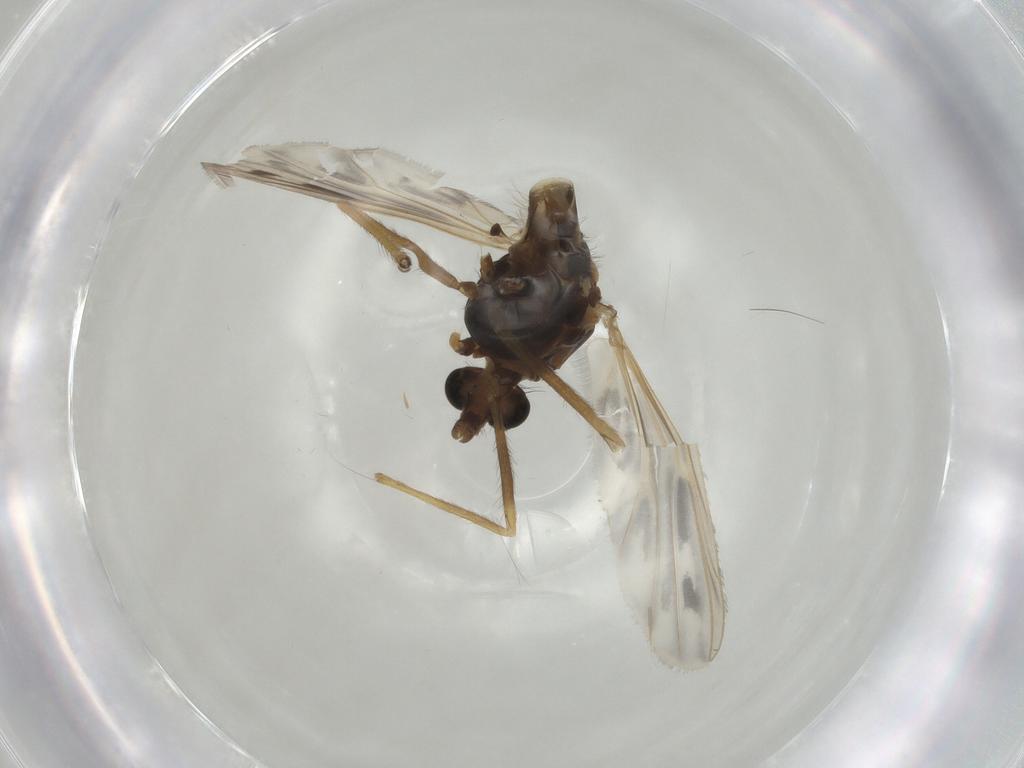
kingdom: Animalia
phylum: Arthropoda
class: Insecta
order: Diptera
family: Chironomidae
